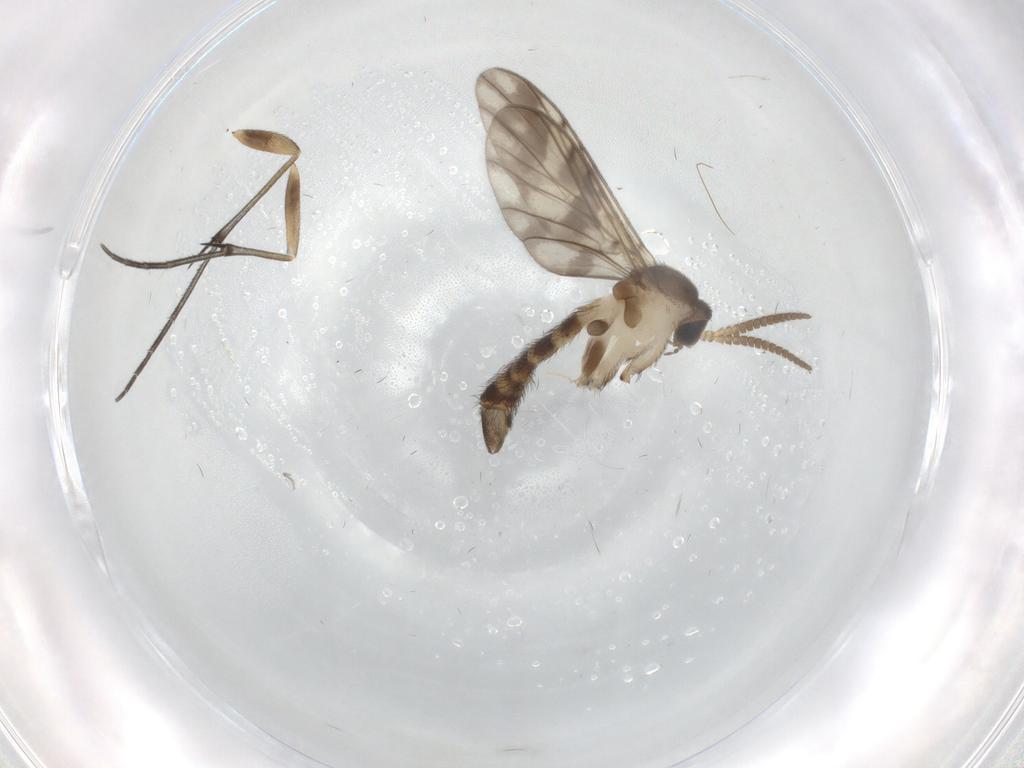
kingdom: Animalia
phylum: Arthropoda
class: Insecta
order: Diptera
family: Keroplatidae
